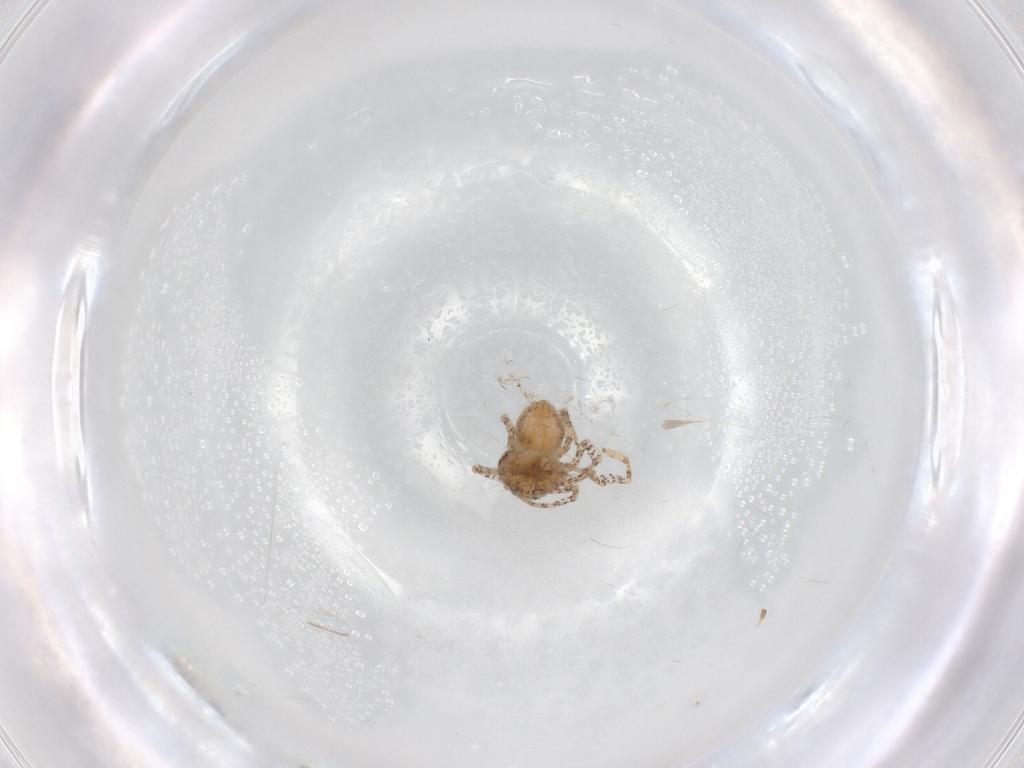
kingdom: Animalia
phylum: Arthropoda
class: Arachnida
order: Araneae
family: Philodromidae
